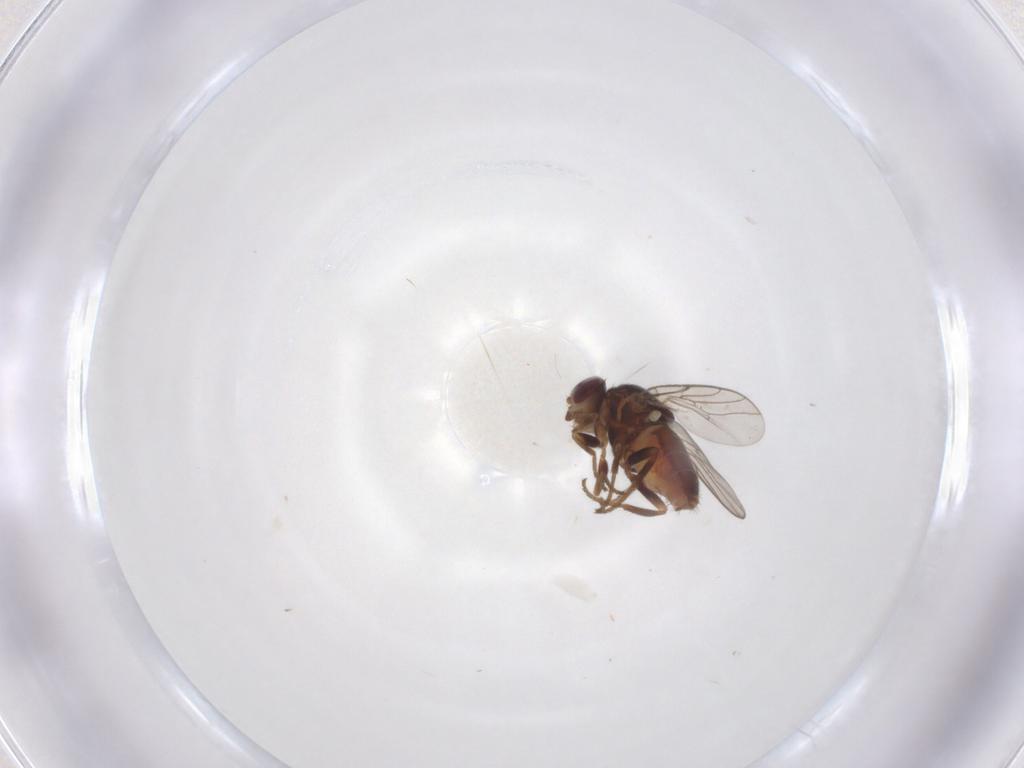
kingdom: Animalia
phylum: Arthropoda
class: Insecta
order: Diptera
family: Chloropidae
